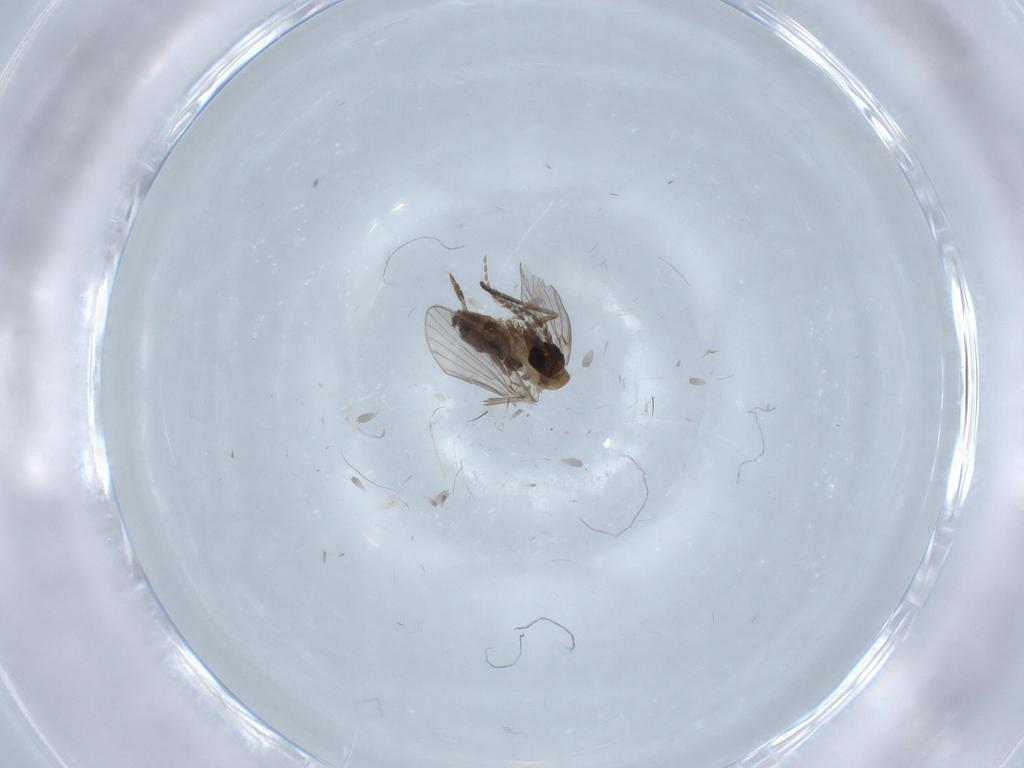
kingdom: Animalia
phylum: Arthropoda
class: Insecta
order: Diptera
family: Psychodidae
